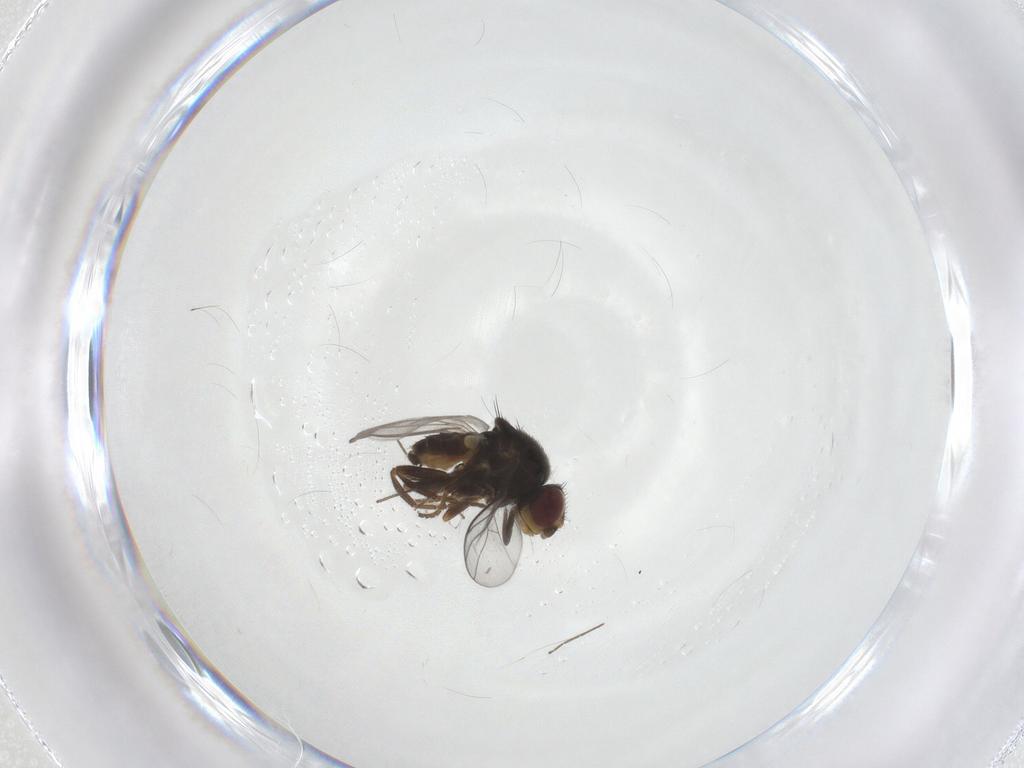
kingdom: Animalia
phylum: Arthropoda
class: Insecta
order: Diptera
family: Chloropidae
